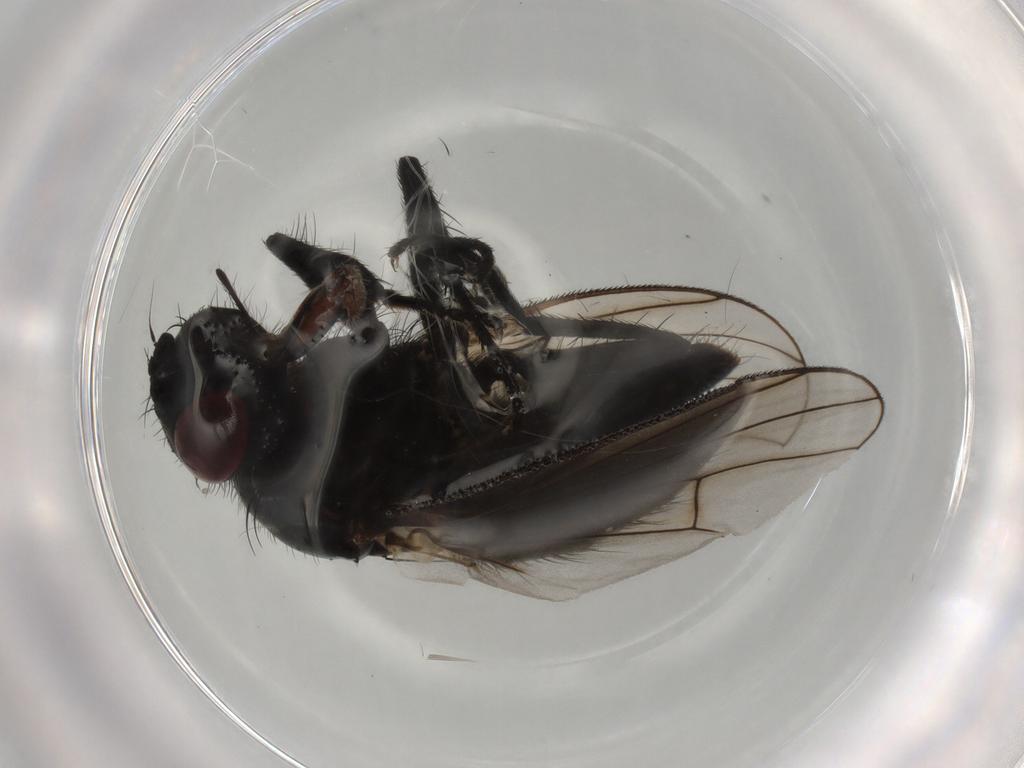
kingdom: Animalia
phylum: Arthropoda
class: Insecta
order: Diptera
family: Muscidae
